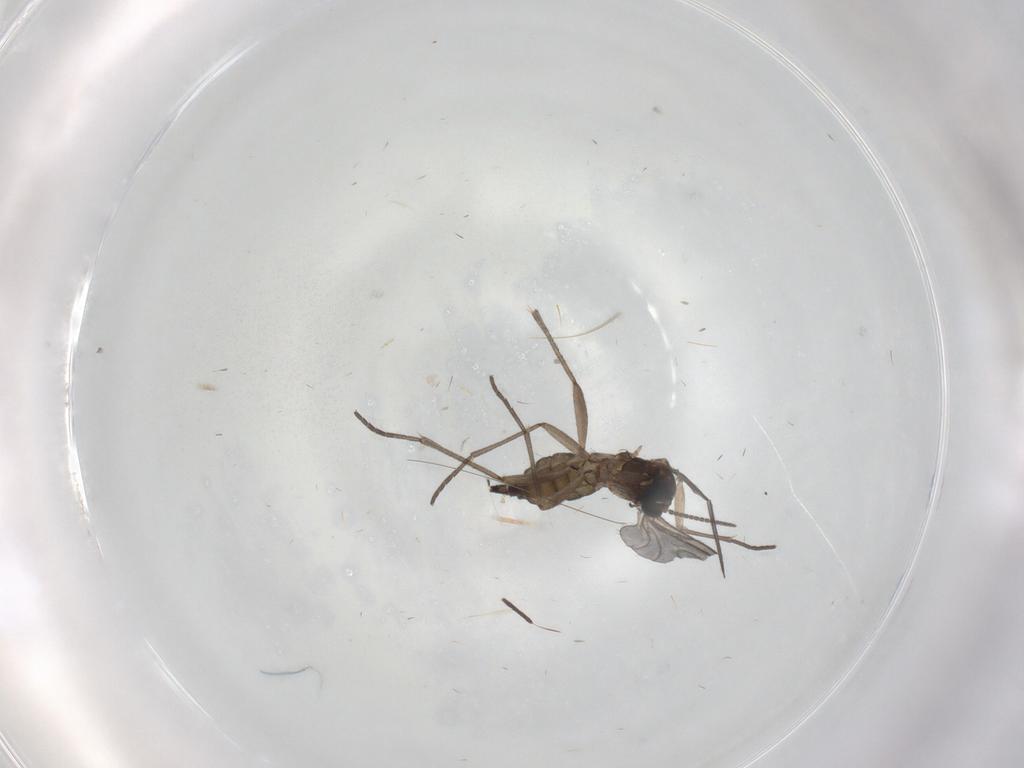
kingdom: Animalia
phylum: Arthropoda
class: Insecta
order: Diptera
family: Sciaridae
